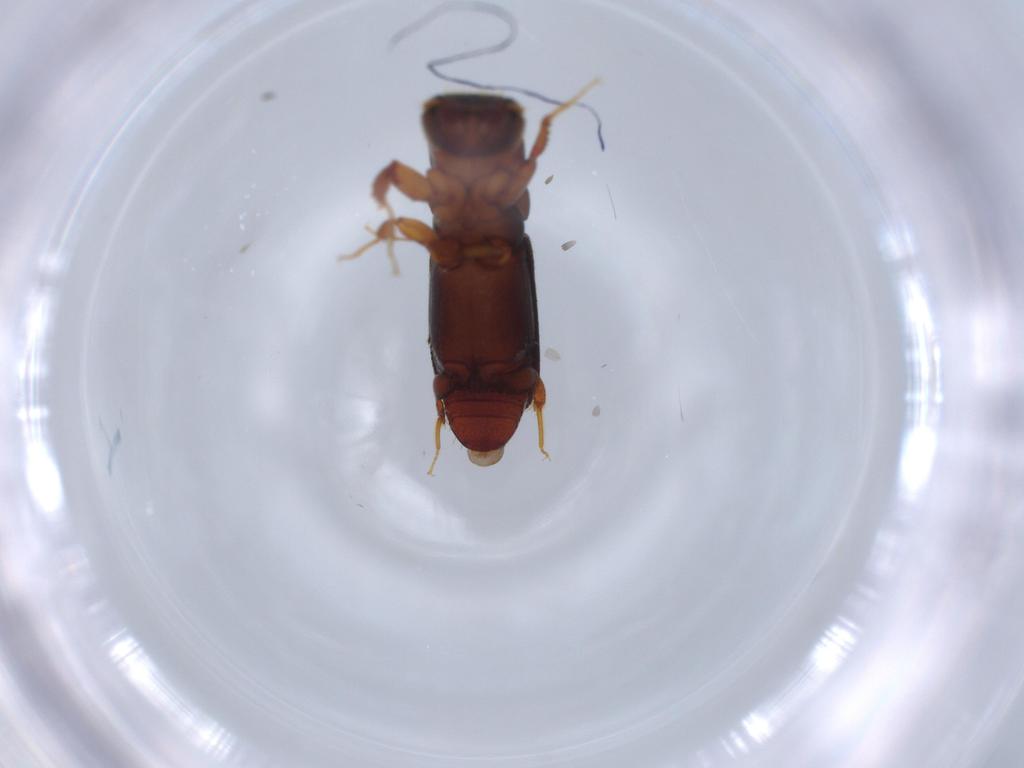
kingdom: Animalia
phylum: Arthropoda
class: Insecta
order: Coleoptera
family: Curculionidae
